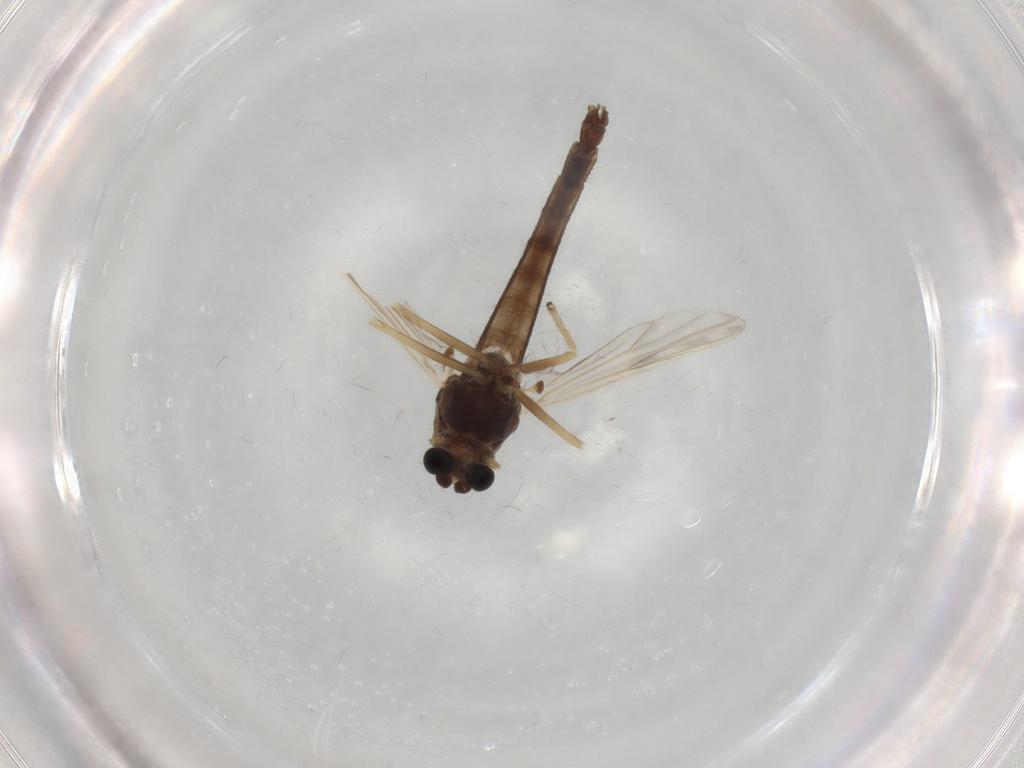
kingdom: Animalia
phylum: Arthropoda
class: Insecta
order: Diptera
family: Chironomidae
